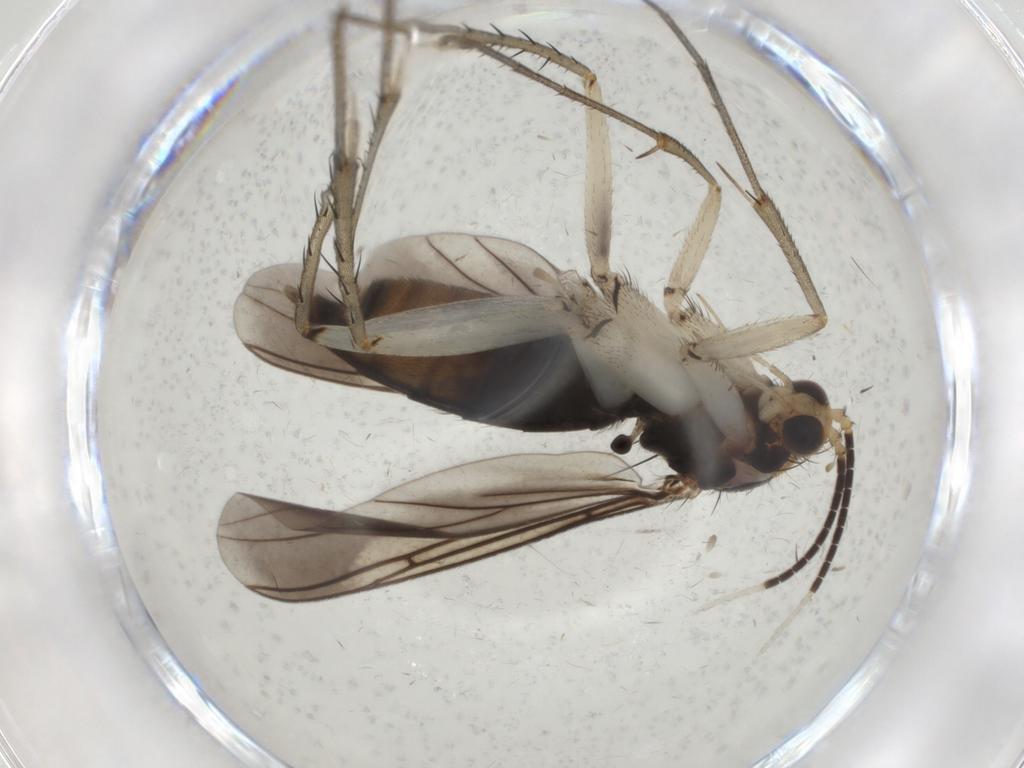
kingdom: Animalia
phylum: Arthropoda
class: Insecta
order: Diptera
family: Mycetophilidae
